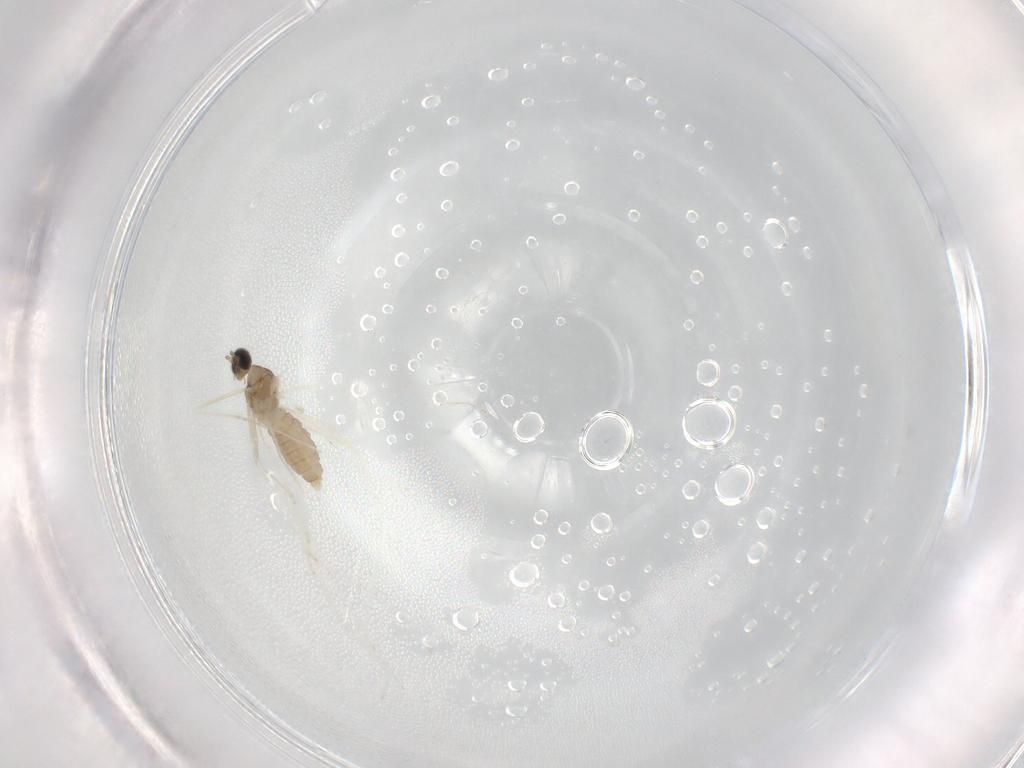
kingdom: Animalia
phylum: Arthropoda
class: Insecta
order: Diptera
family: Cecidomyiidae
